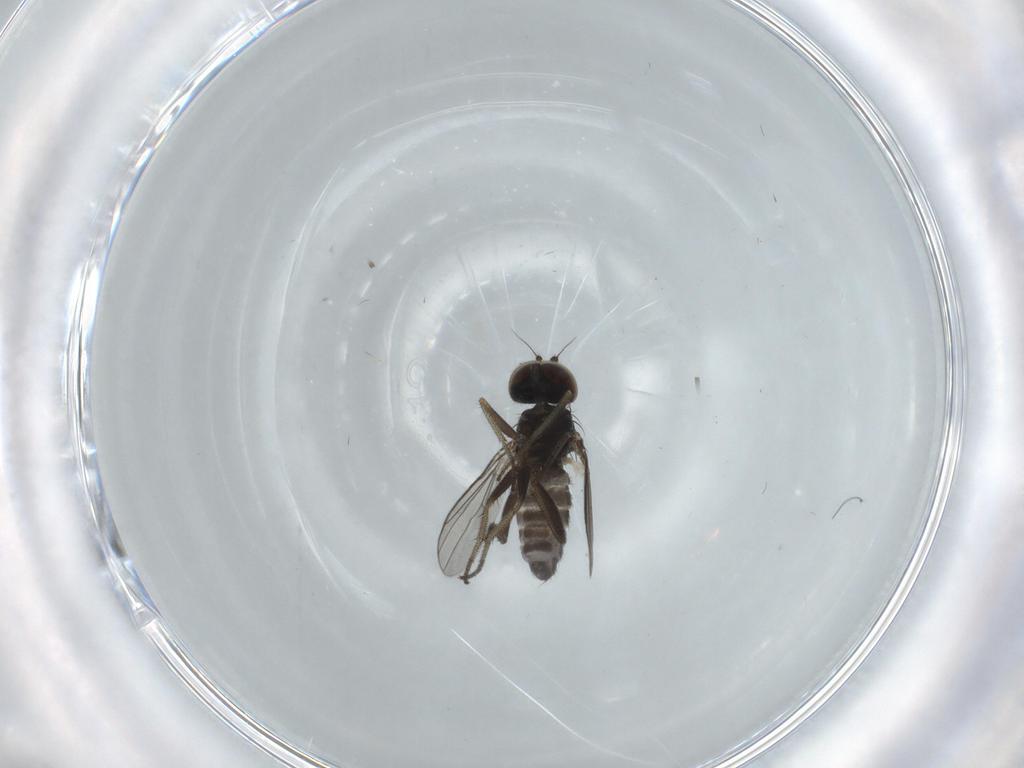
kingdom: Animalia
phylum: Arthropoda
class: Insecta
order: Diptera
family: Dolichopodidae
